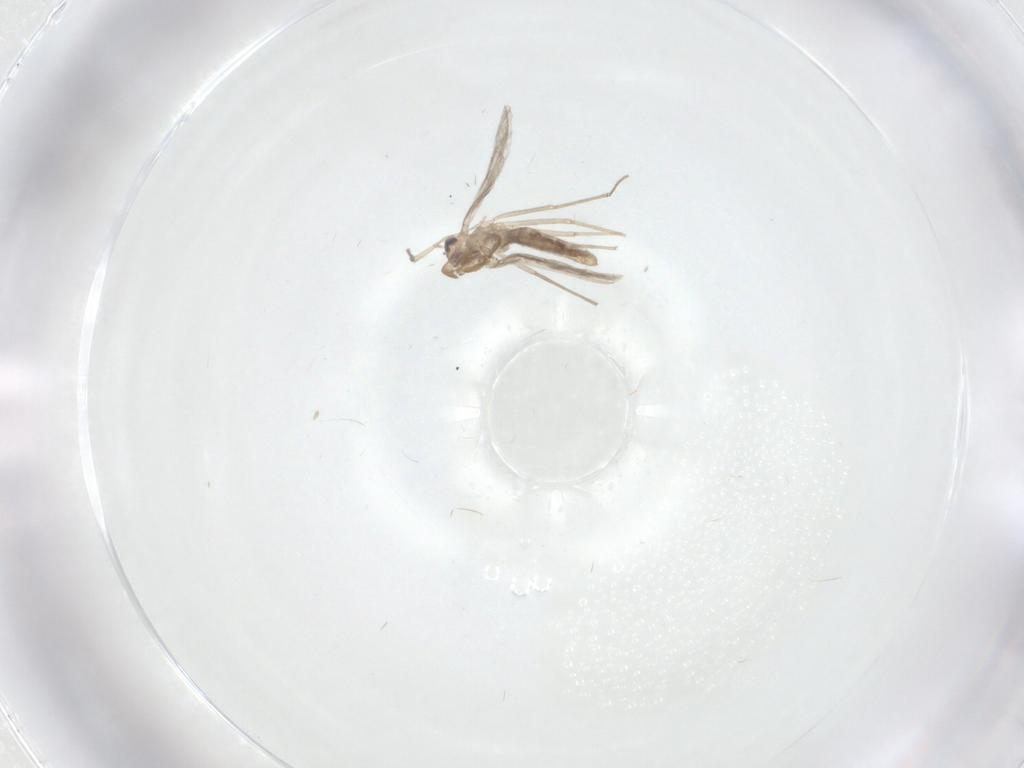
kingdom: Animalia
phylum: Arthropoda
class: Insecta
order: Diptera
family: Chironomidae
